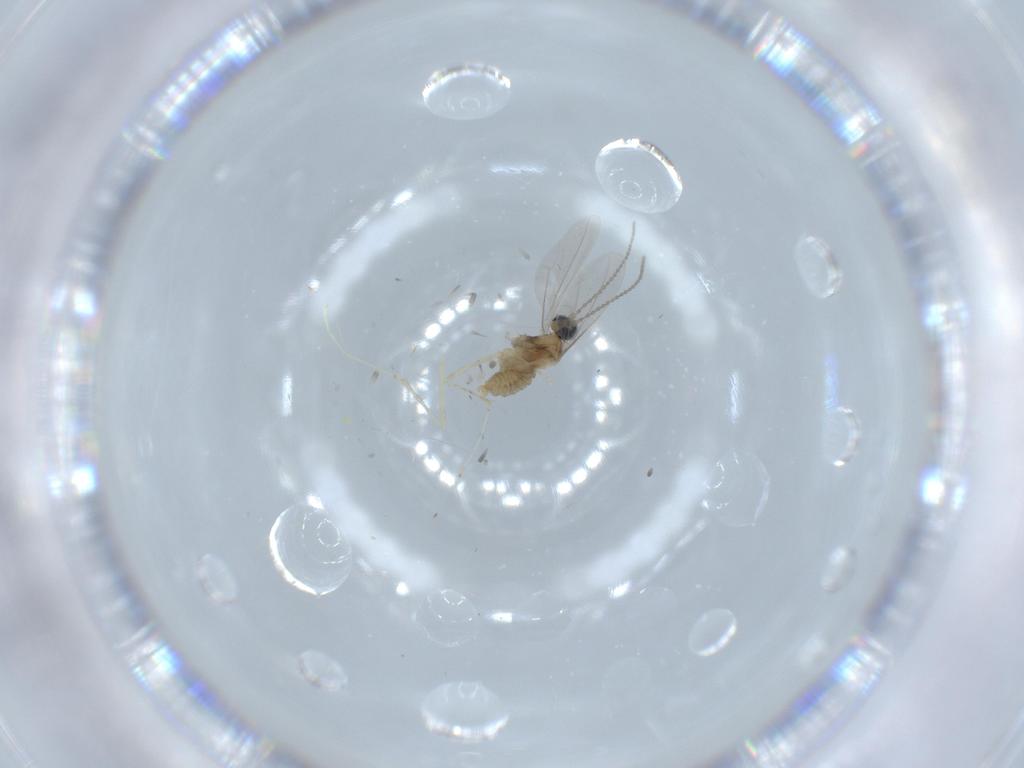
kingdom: Animalia
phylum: Arthropoda
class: Insecta
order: Diptera
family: Cecidomyiidae
